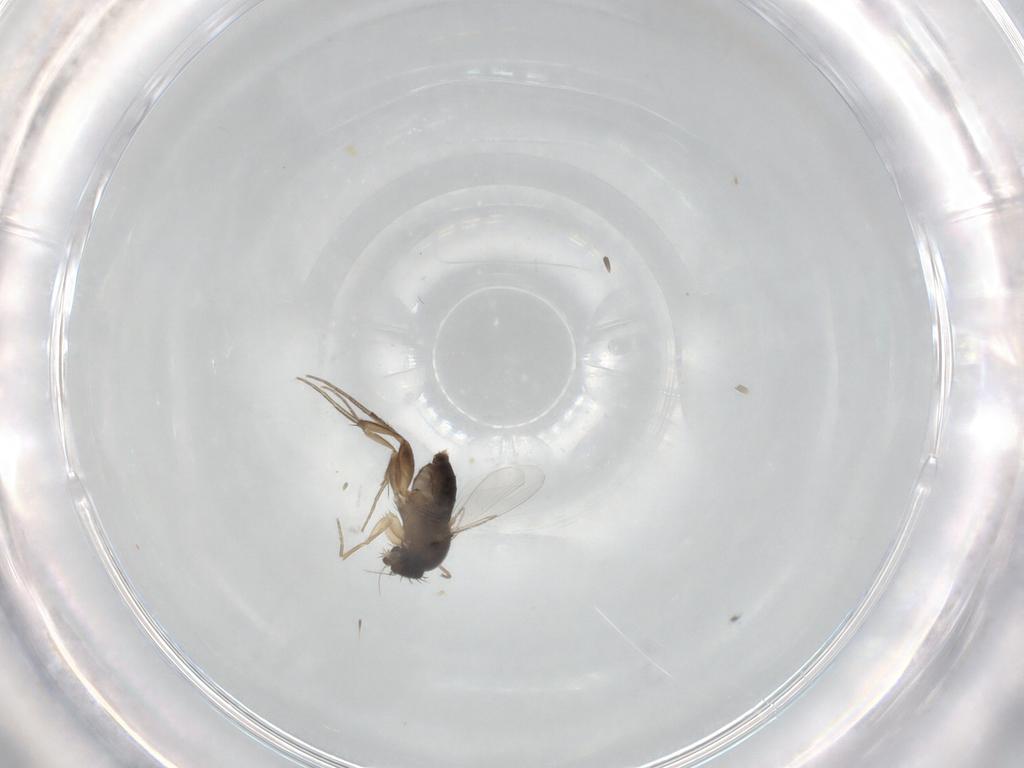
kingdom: Animalia
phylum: Arthropoda
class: Insecta
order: Diptera
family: Phoridae
